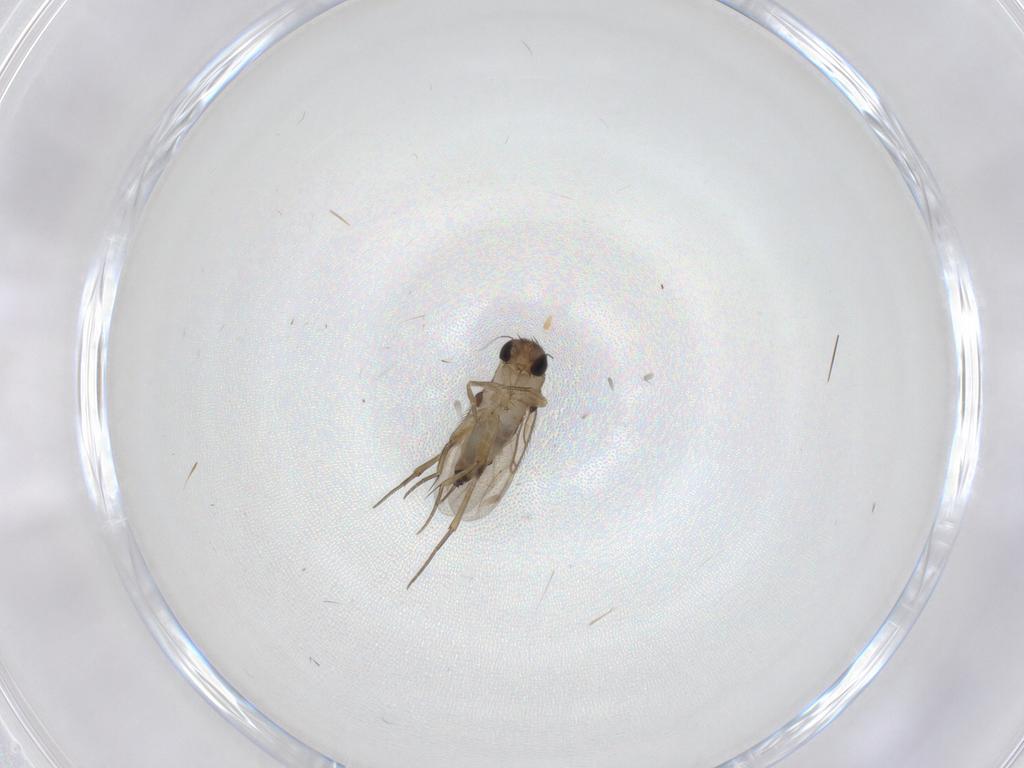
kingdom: Animalia
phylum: Arthropoda
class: Insecta
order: Diptera
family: Phoridae
